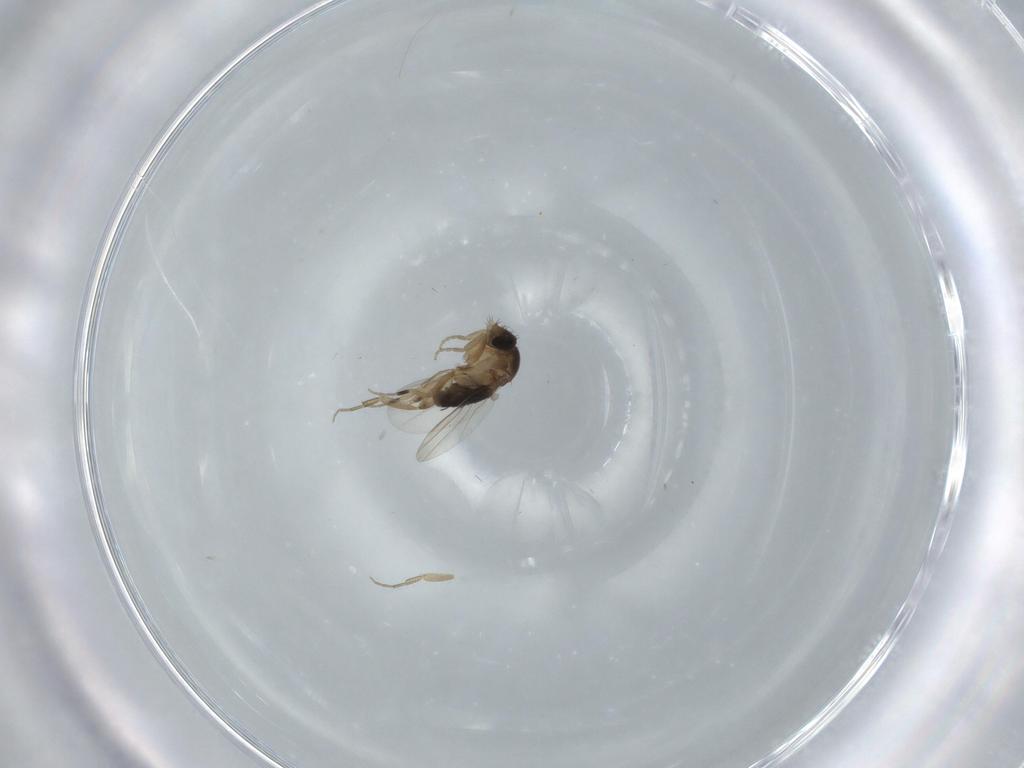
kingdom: Animalia
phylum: Arthropoda
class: Insecta
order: Diptera
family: Phoridae
